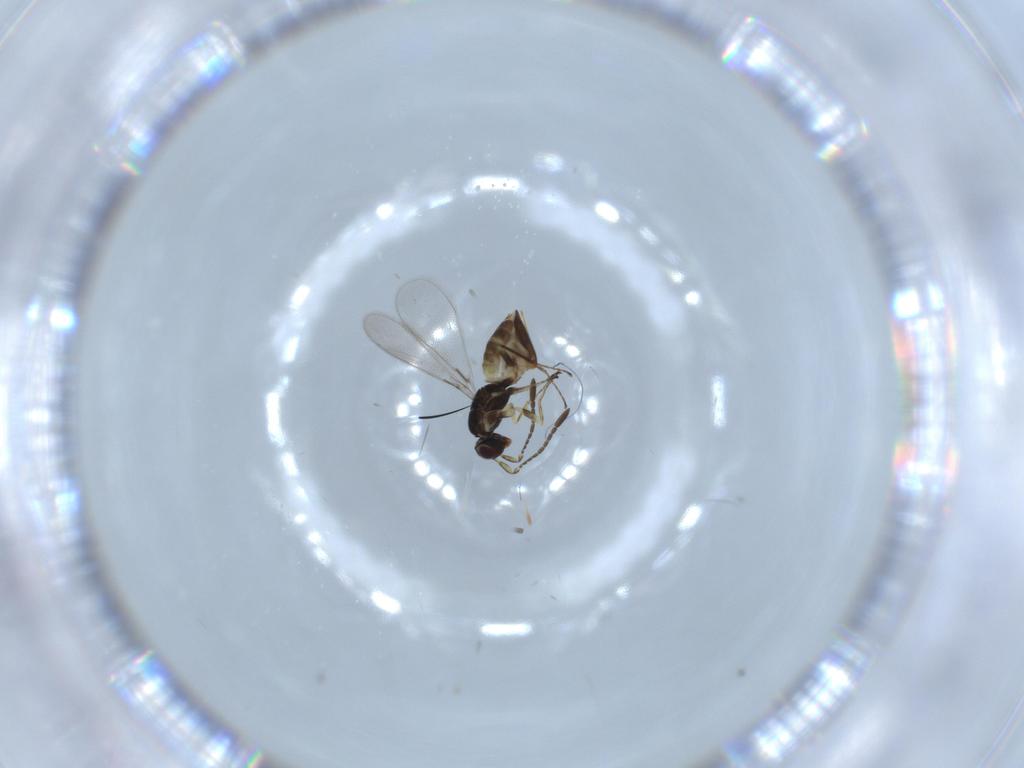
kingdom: Animalia
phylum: Arthropoda
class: Insecta
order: Hymenoptera
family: Mymaridae
